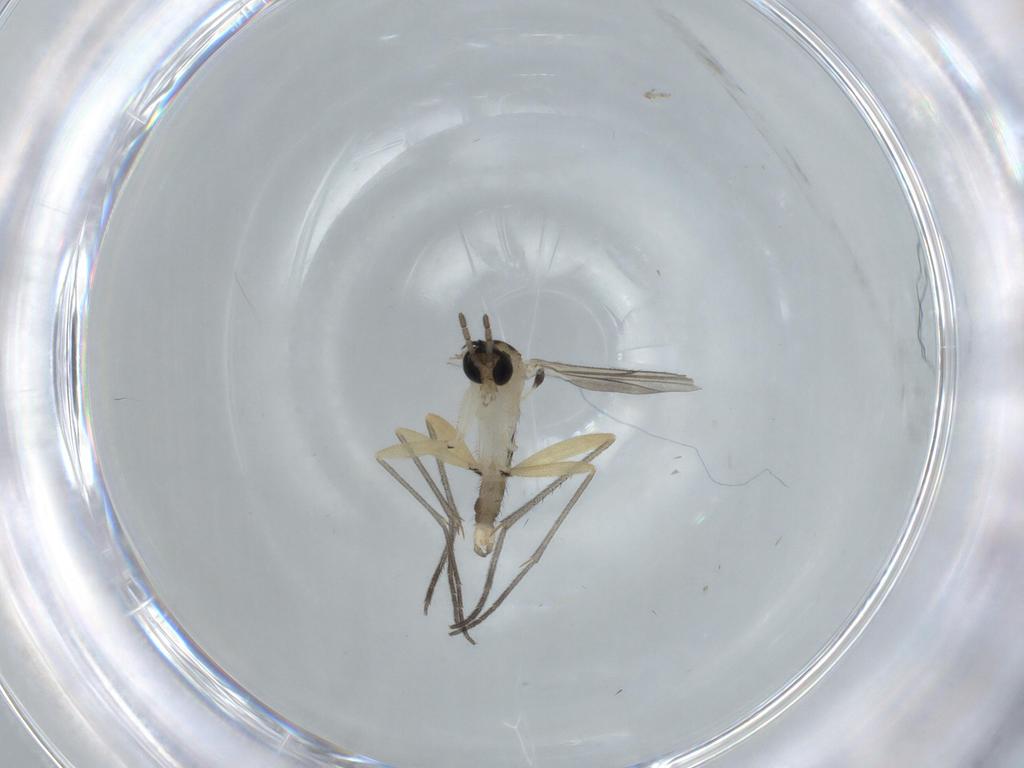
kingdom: Animalia
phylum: Arthropoda
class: Insecta
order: Diptera
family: Sciaridae
